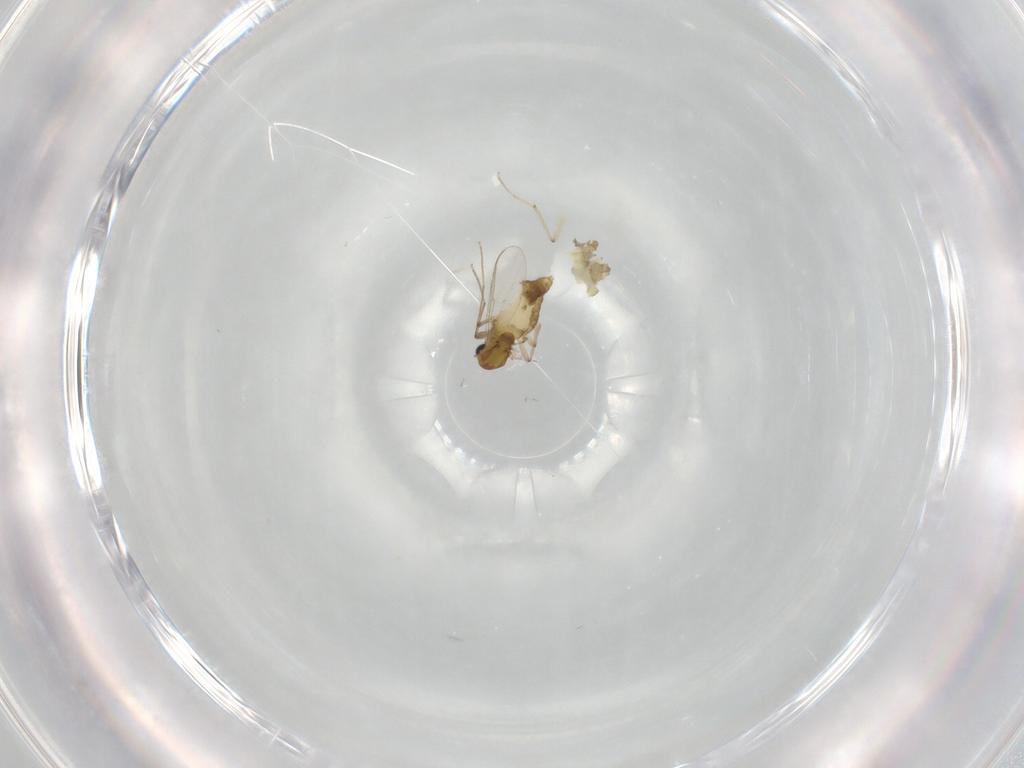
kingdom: Animalia
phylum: Arthropoda
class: Insecta
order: Diptera
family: Chironomidae
